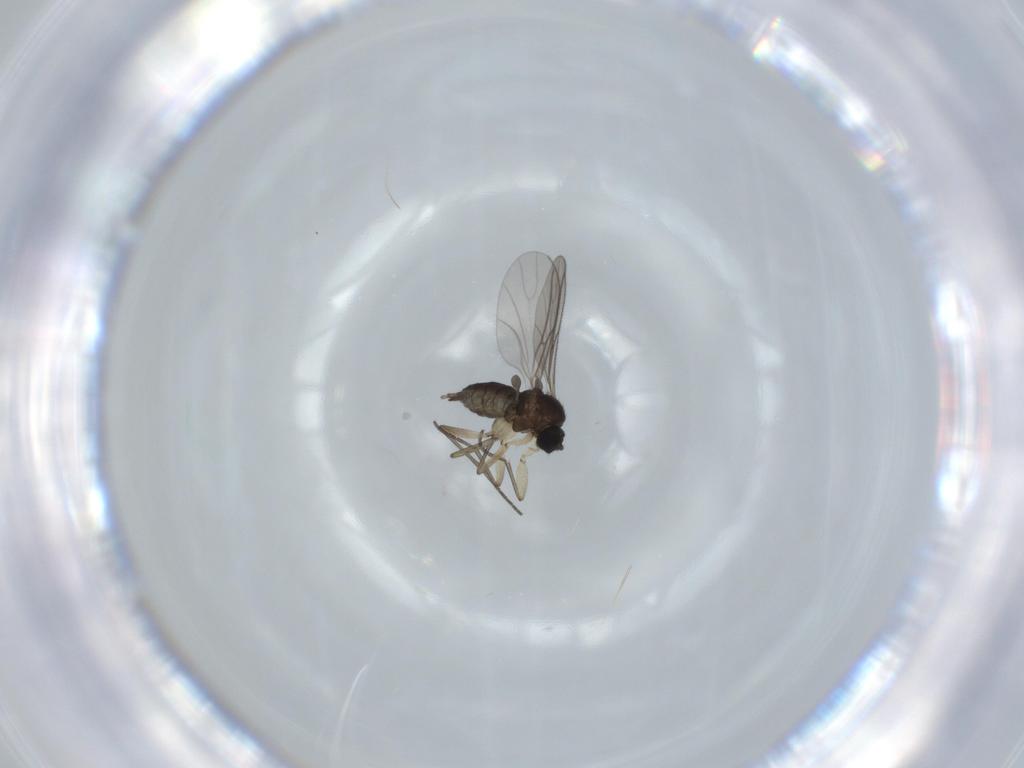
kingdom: Animalia
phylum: Arthropoda
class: Insecta
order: Diptera
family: Sciaridae
